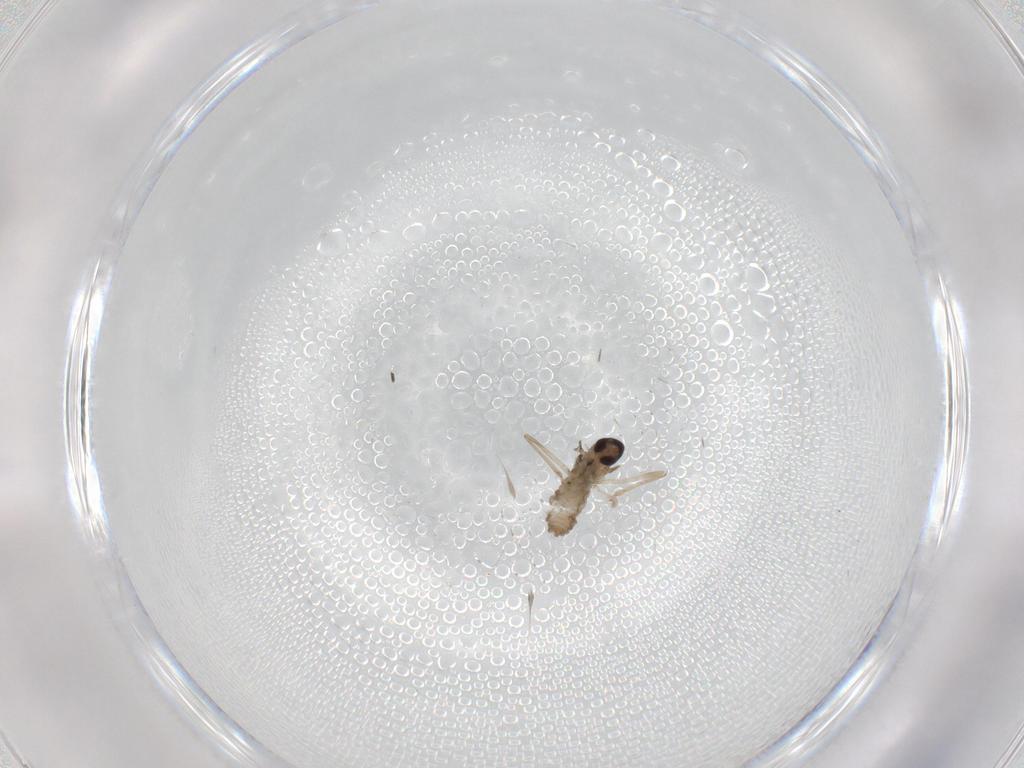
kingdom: Animalia
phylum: Arthropoda
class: Insecta
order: Diptera
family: Cecidomyiidae
